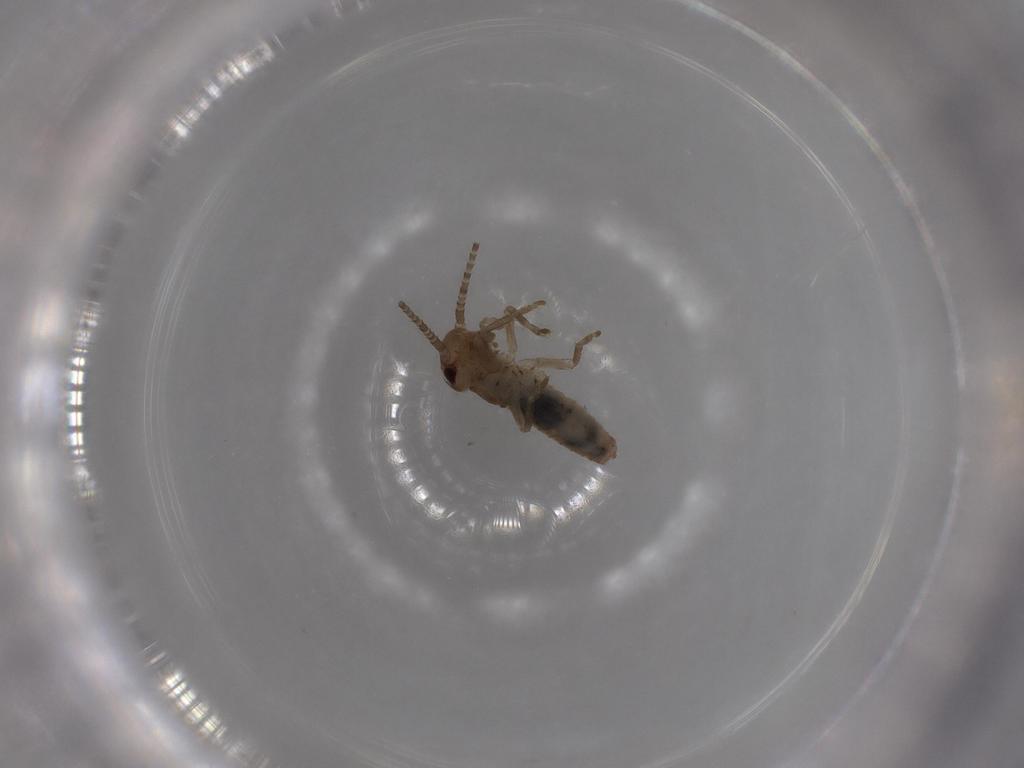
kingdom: Animalia
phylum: Arthropoda
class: Insecta
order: Orthoptera
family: Gryllidae
